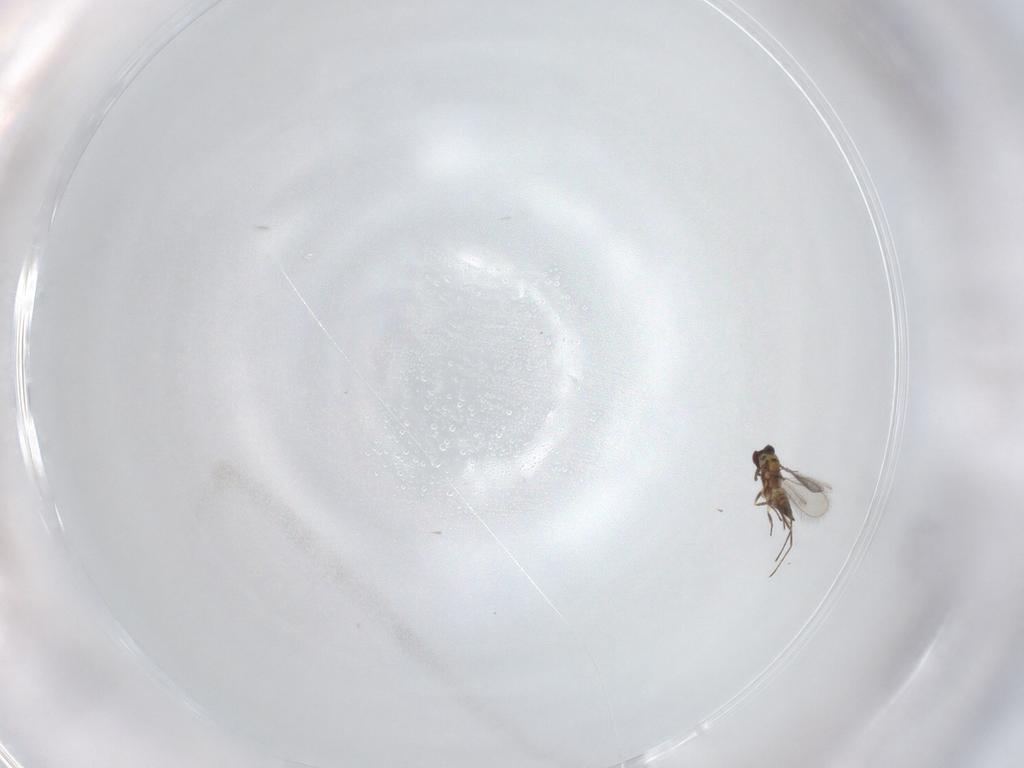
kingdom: Animalia
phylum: Arthropoda
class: Insecta
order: Hymenoptera
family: Mymaridae
